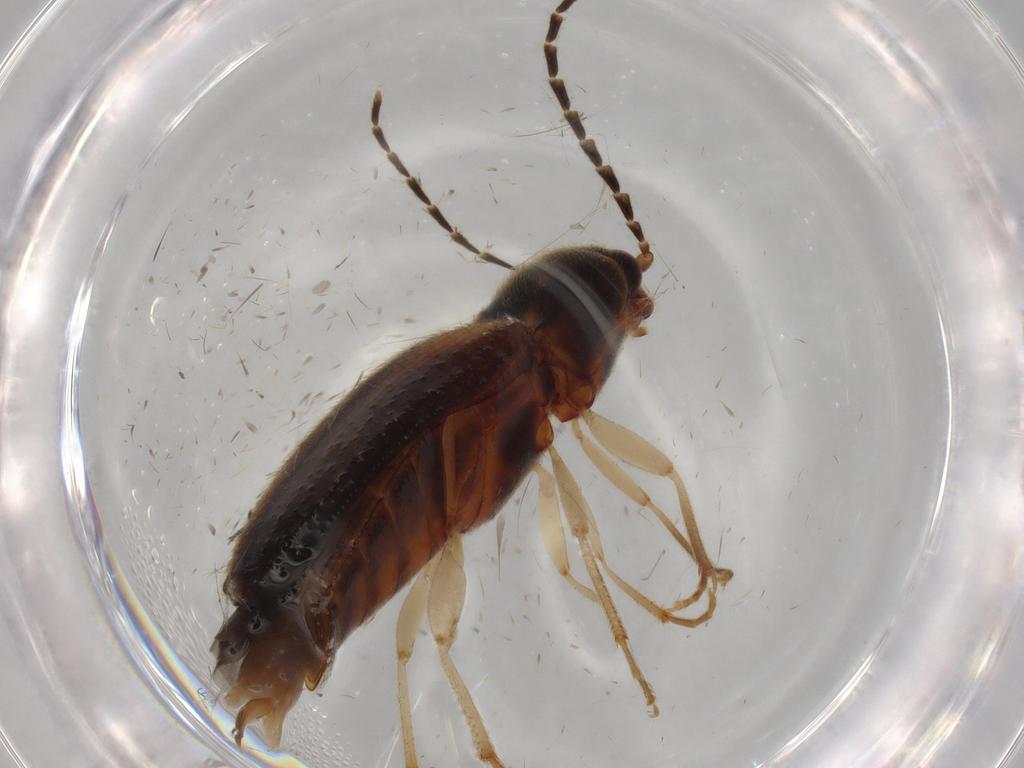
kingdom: Animalia
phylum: Arthropoda
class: Insecta
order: Coleoptera
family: Elateridae
